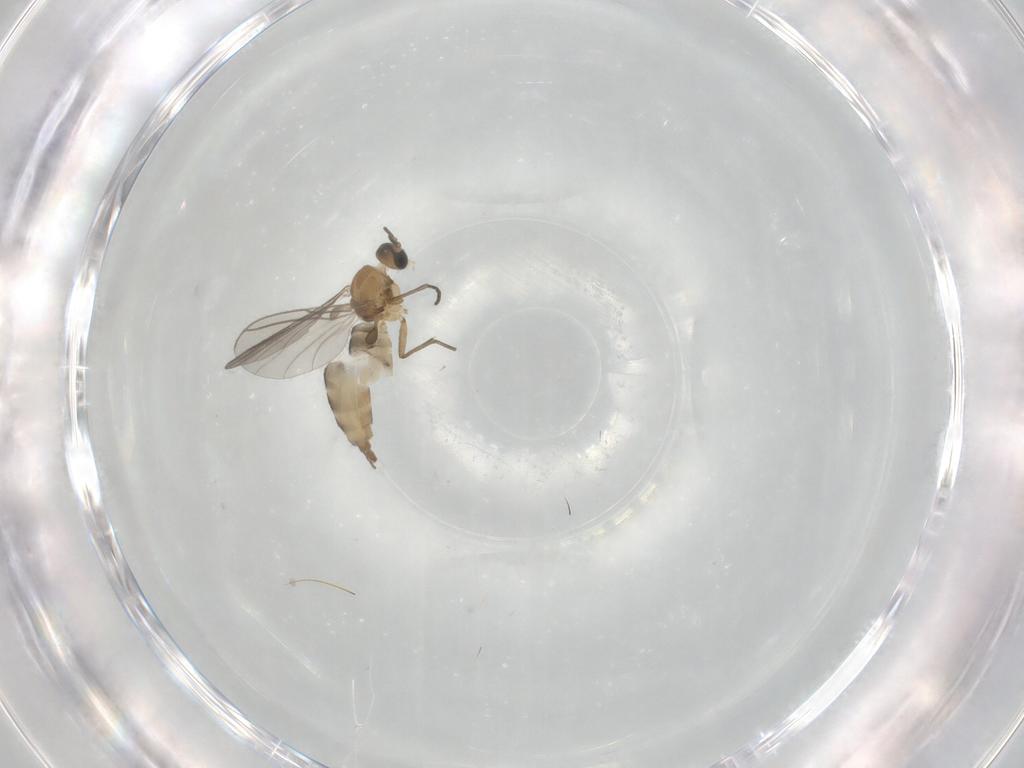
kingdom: Animalia
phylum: Arthropoda
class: Insecta
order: Diptera
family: Sciaridae
